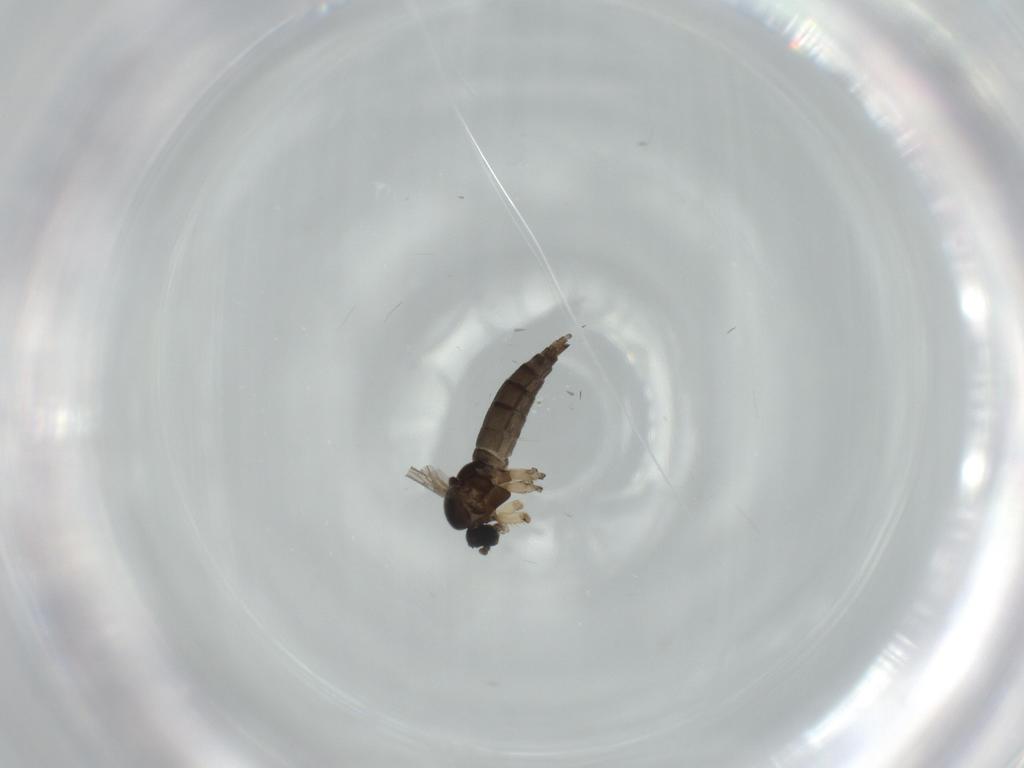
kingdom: Animalia
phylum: Arthropoda
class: Insecta
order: Diptera
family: Sciaridae
